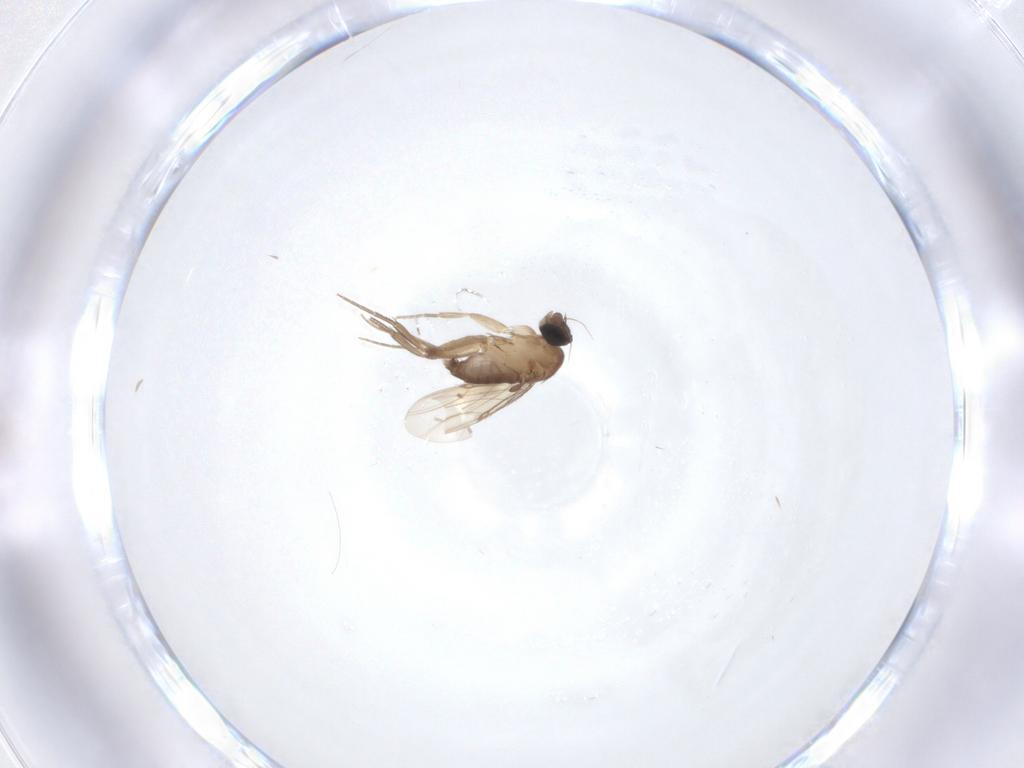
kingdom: Animalia
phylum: Arthropoda
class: Insecta
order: Diptera
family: Phoridae
